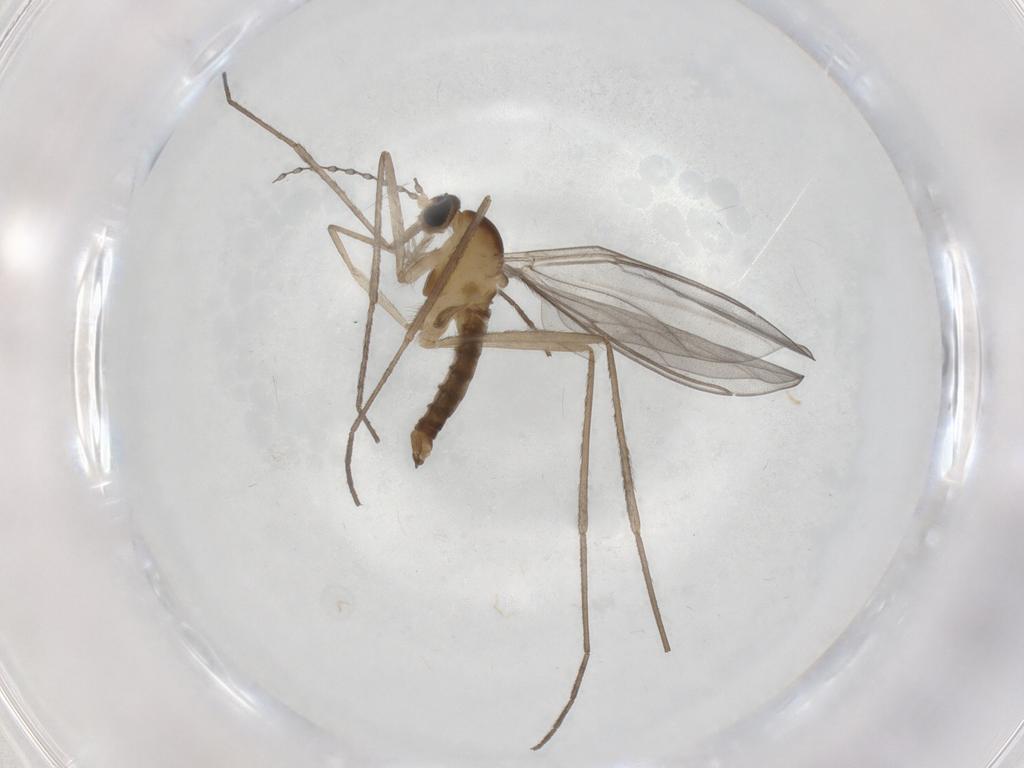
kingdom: Animalia
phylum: Arthropoda
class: Insecta
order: Diptera
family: Chironomidae
